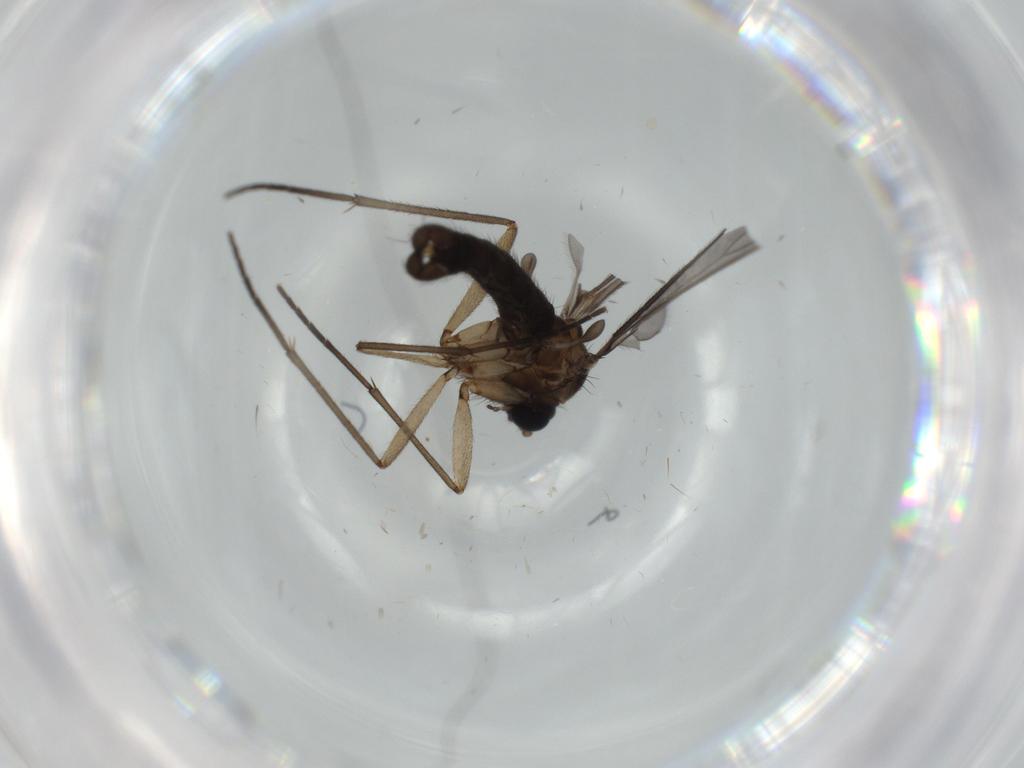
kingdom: Animalia
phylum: Arthropoda
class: Insecta
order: Diptera
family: Sciaridae
